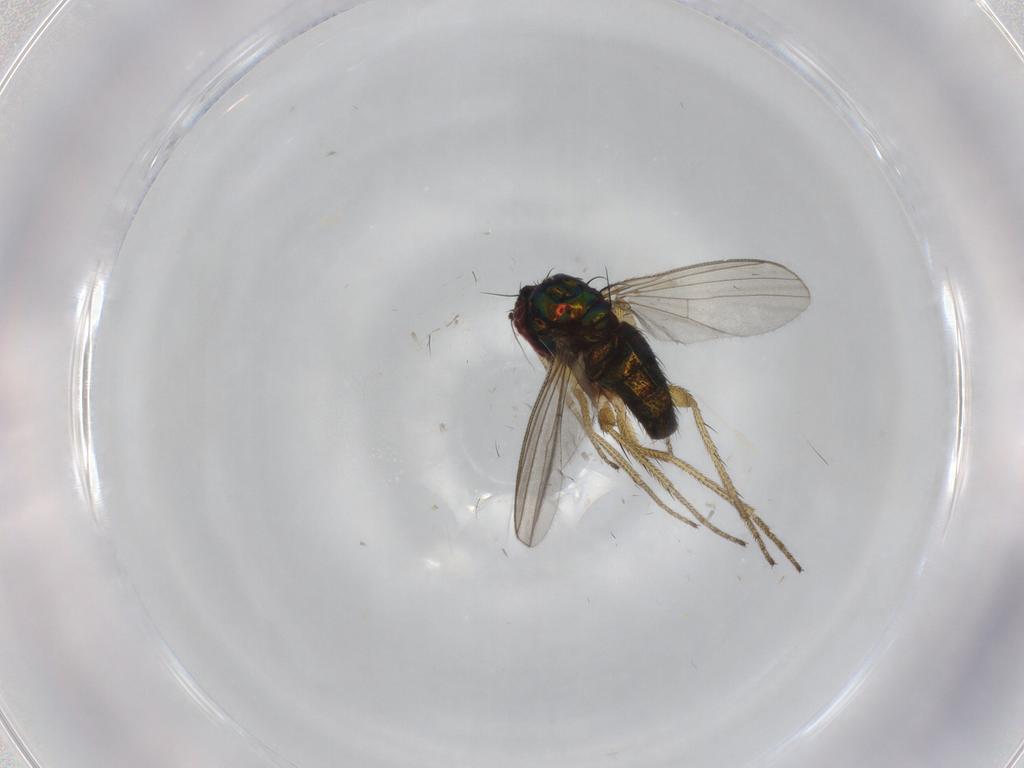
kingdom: Animalia
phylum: Arthropoda
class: Insecta
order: Diptera
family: Dolichopodidae
